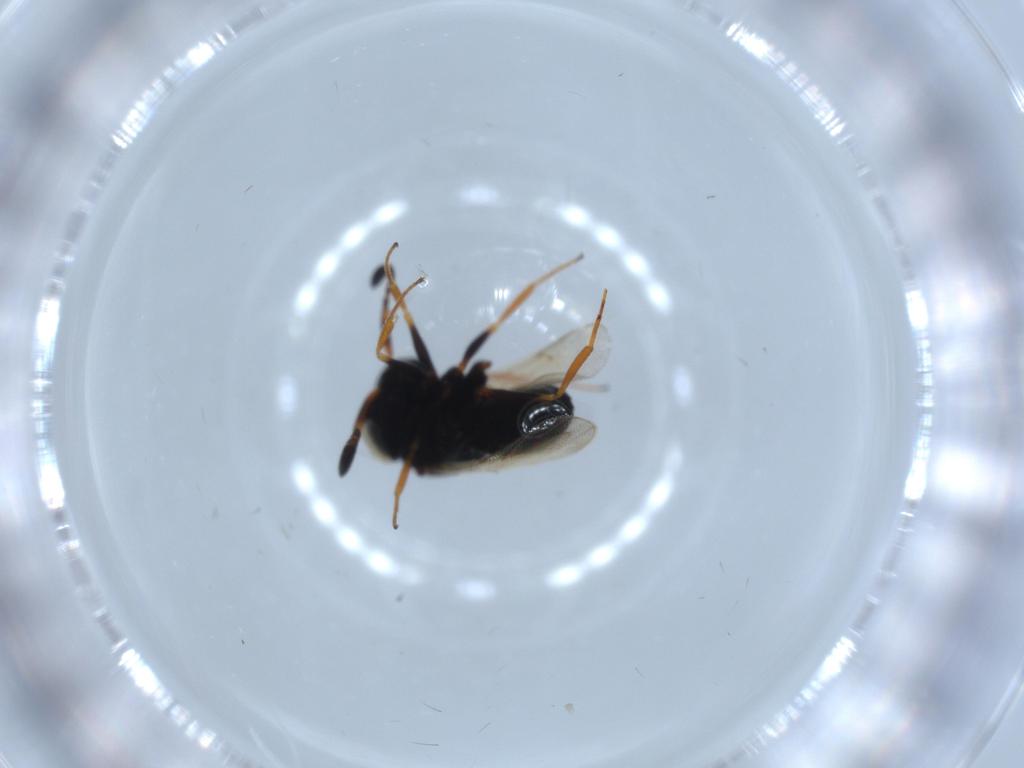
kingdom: Animalia
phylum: Arthropoda
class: Insecta
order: Hymenoptera
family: Scelionidae
